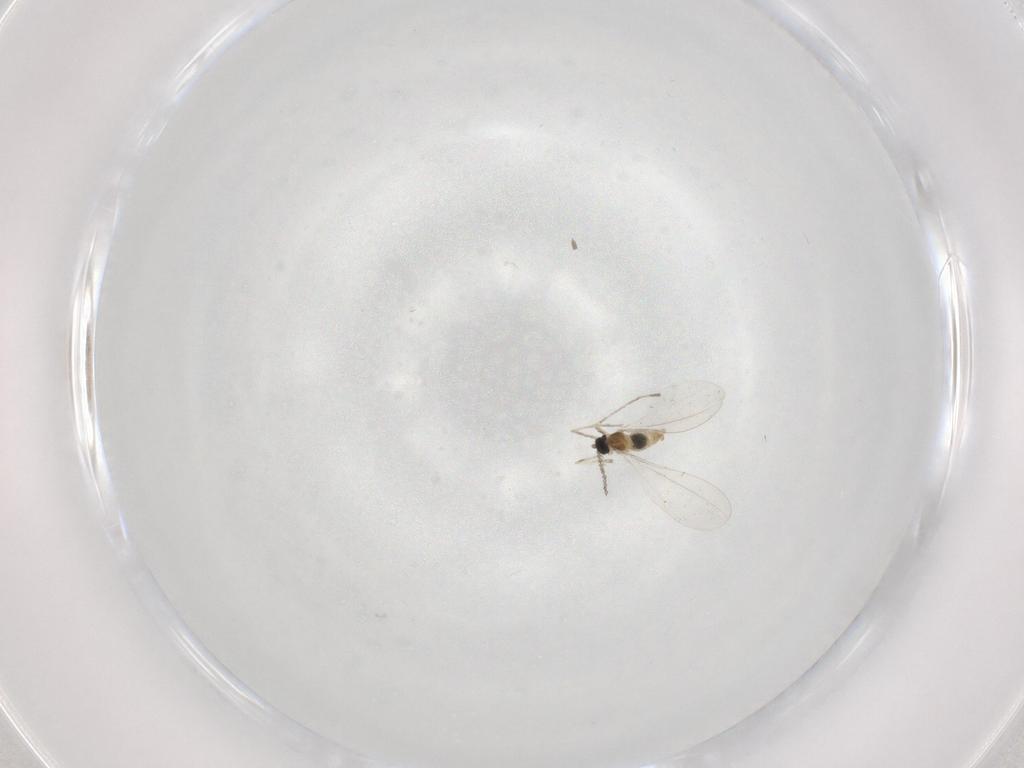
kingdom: Animalia
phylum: Arthropoda
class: Insecta
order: Diptera
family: Cecidomyiidae
